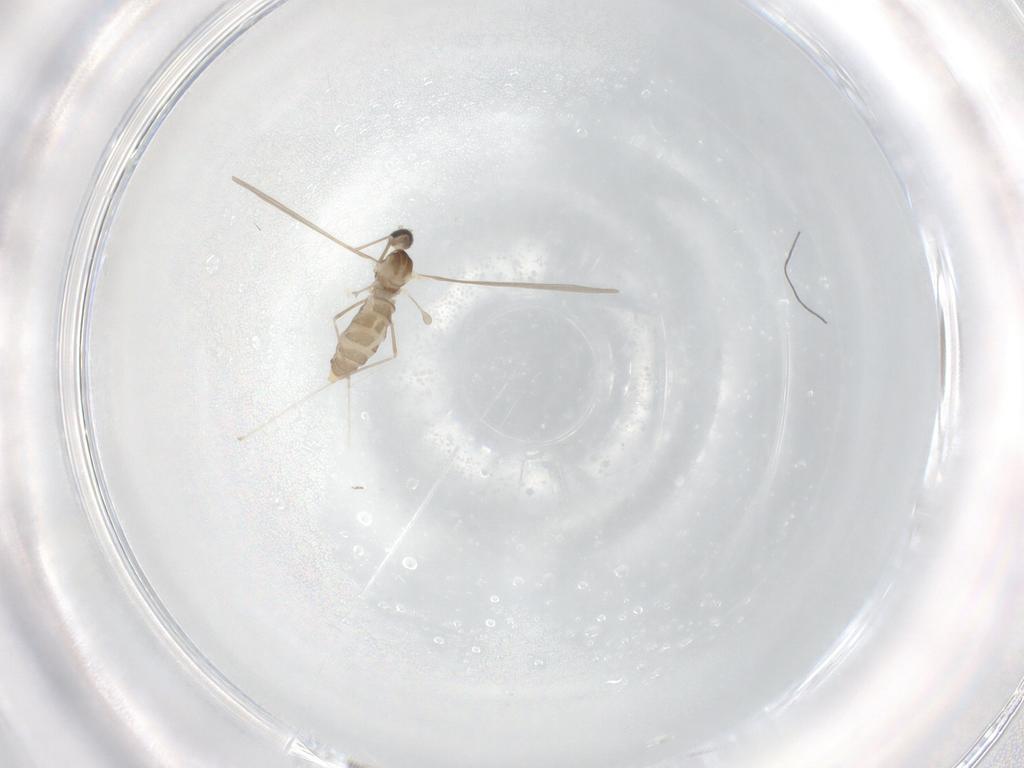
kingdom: Animalia
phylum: Arthropoda
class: Insecta
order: Diptera
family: Cecidomyiidae
